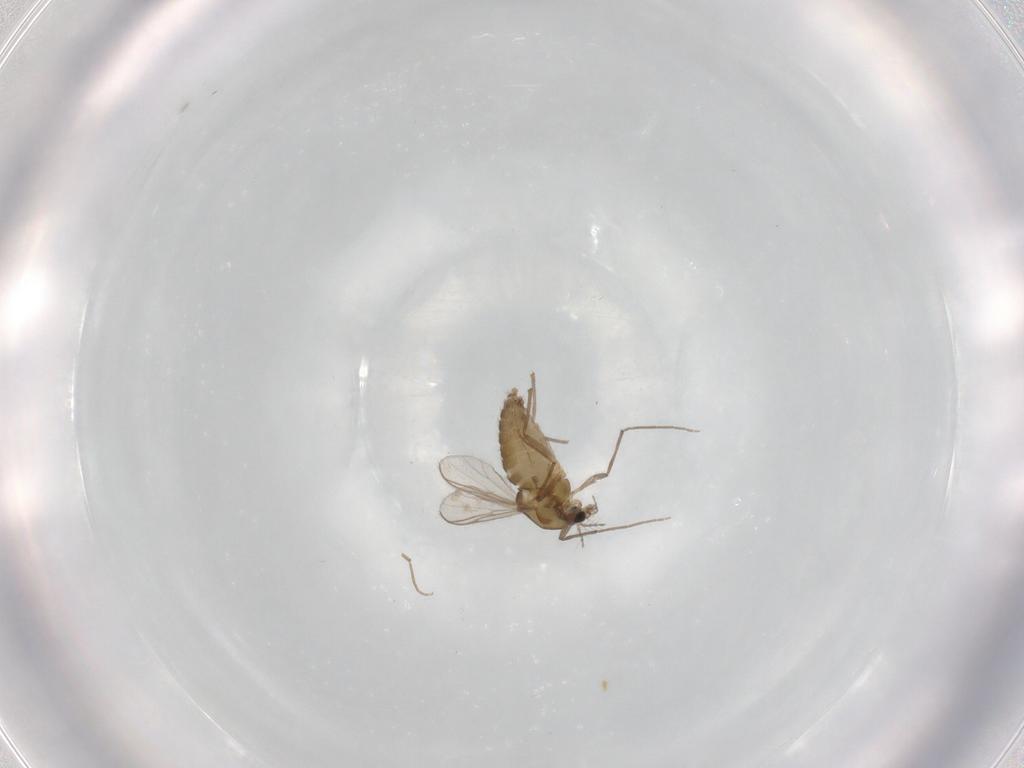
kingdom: Animalia
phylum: Arthropoda
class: Insecta
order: Diptera
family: Chironomidae
